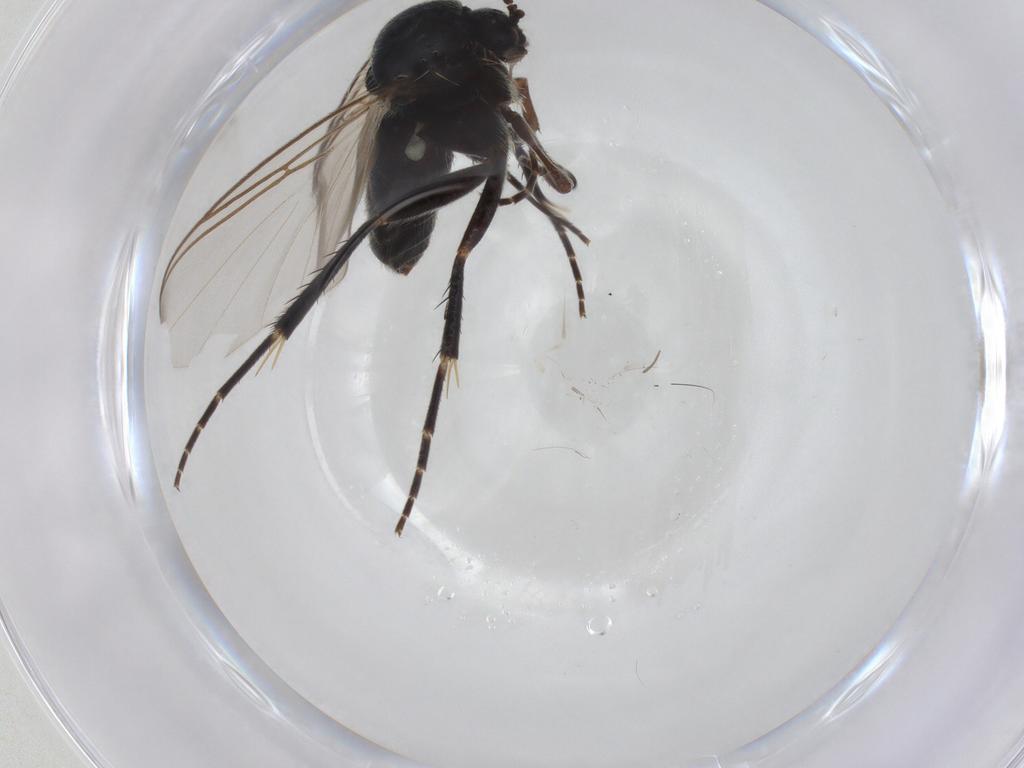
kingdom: Animalia
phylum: Arthropoda
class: Insecta
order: Diptera
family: Mycetophilidae
